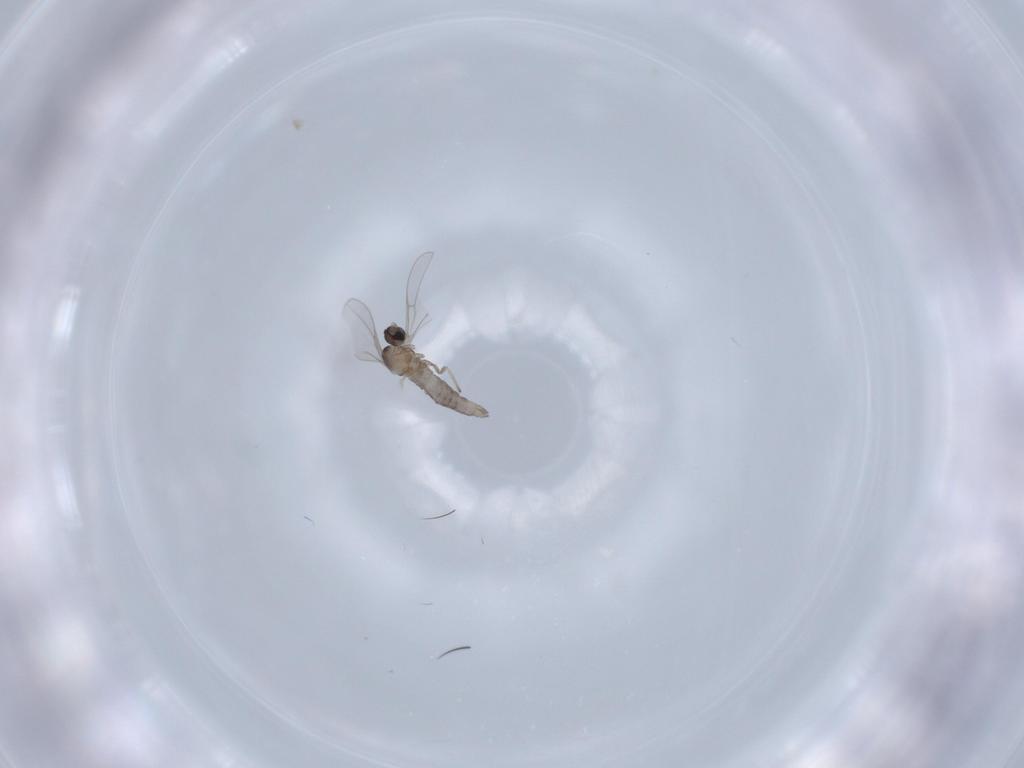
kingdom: Animalia
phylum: Arthropoda
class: Insecta
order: Diptera
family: Cecidomyiidae
